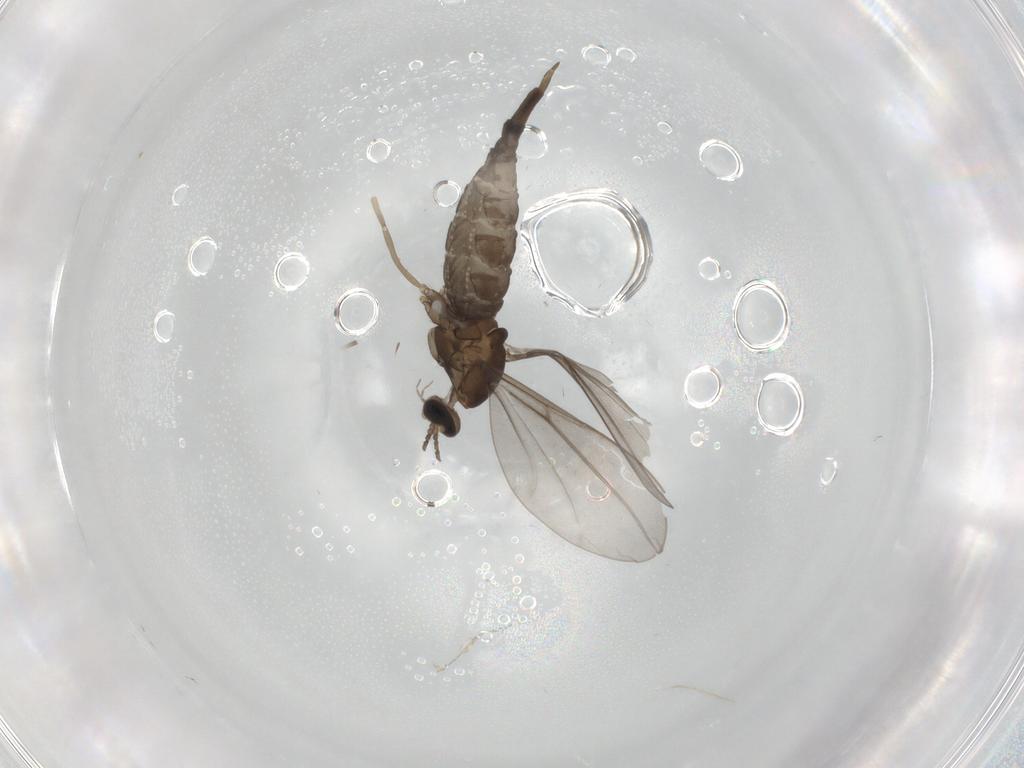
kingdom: Animalia
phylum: Arthropoda
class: Insecta
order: Diptera
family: Cecidomyiidae
